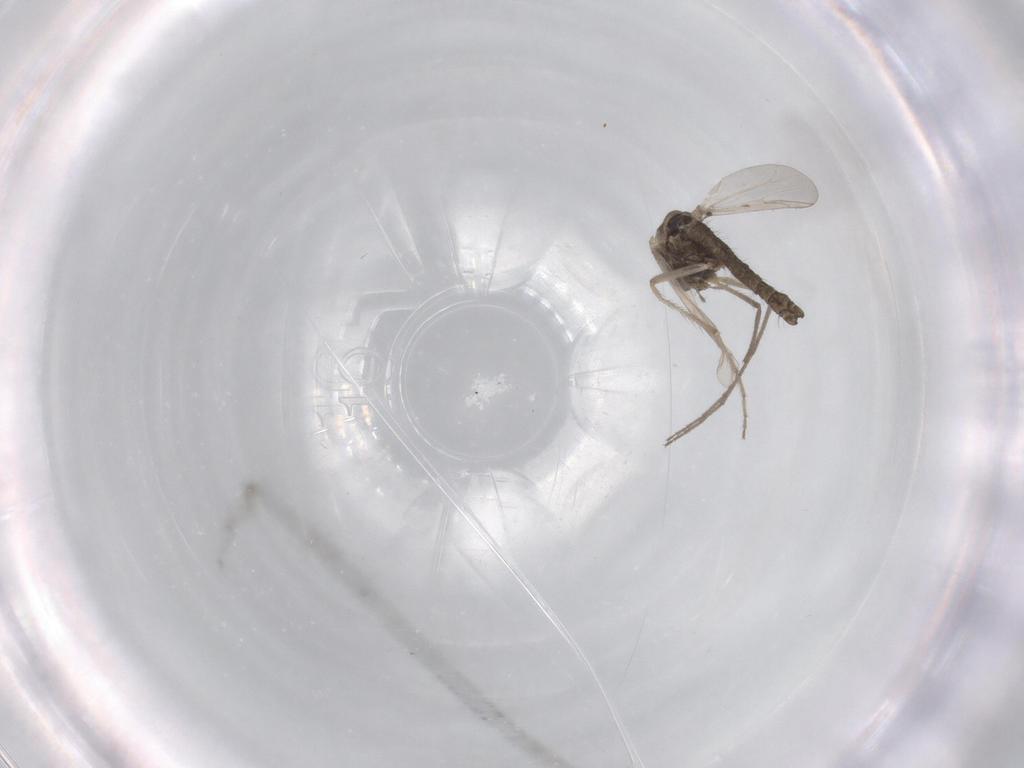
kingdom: Animalia
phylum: Arthropoda
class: Insecta
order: Diptera
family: Chironomidae
